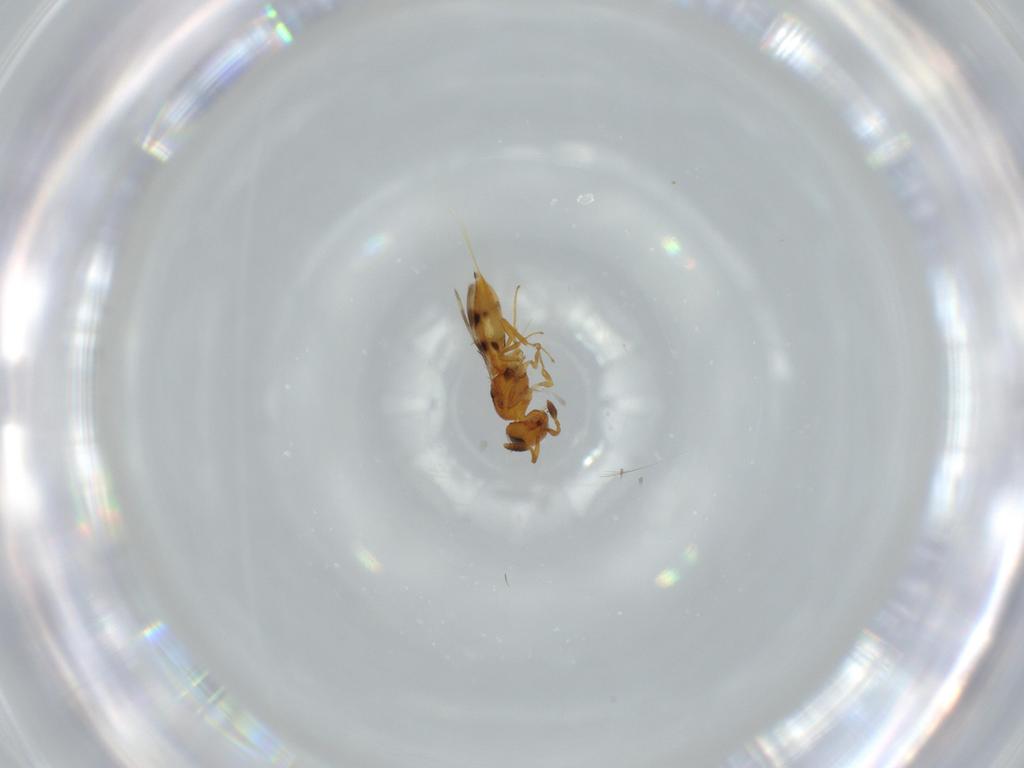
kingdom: Animalia
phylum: Arthropoda
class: Insecta
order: Hymenoptera
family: Scelionidae
